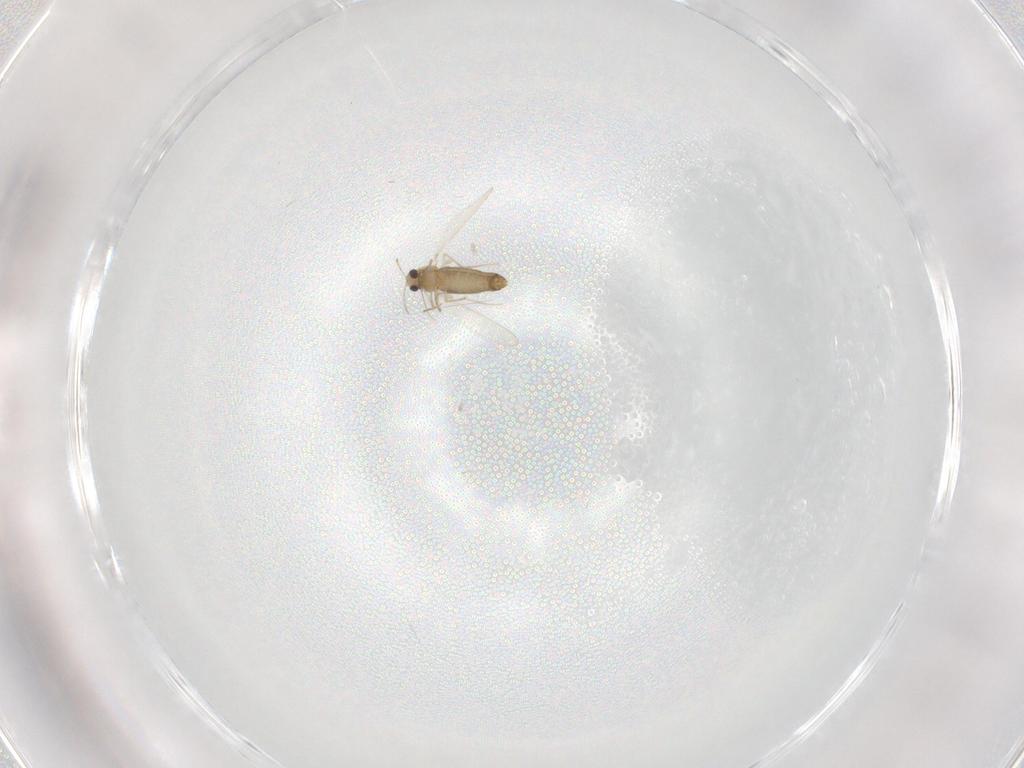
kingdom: Animalia
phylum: Arthropoda
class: Insecta
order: Diptera
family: Chironomidae
